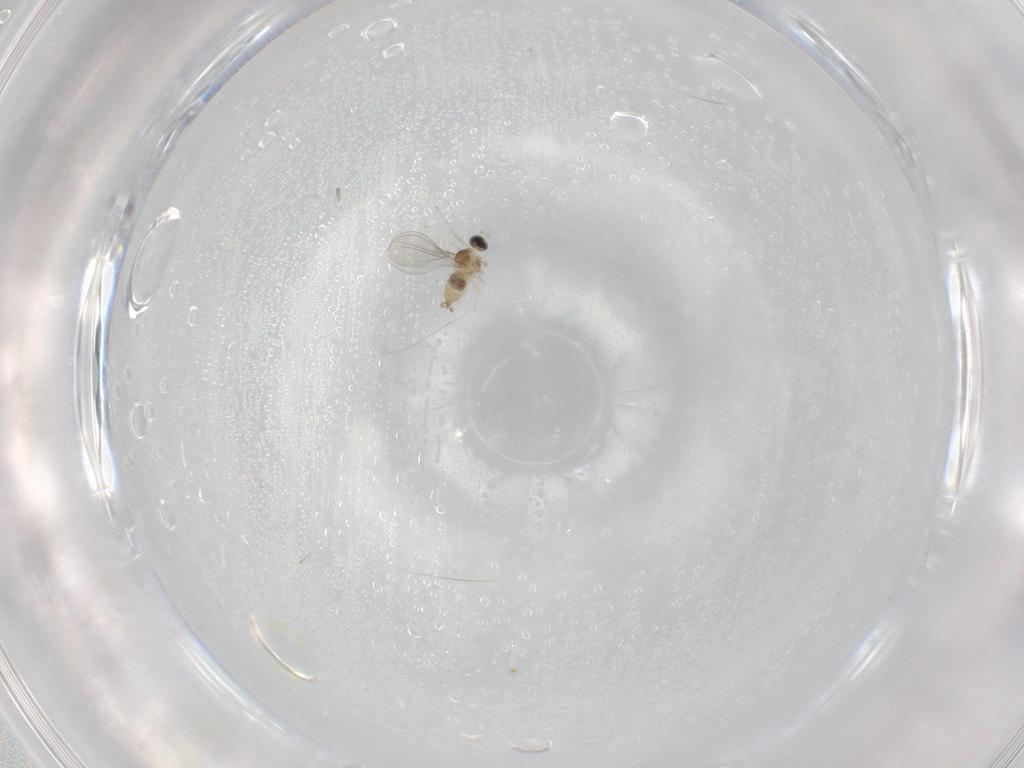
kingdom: Animalia
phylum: Arthropoda
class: Insecta
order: Diptera
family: Cecidomyiidae
